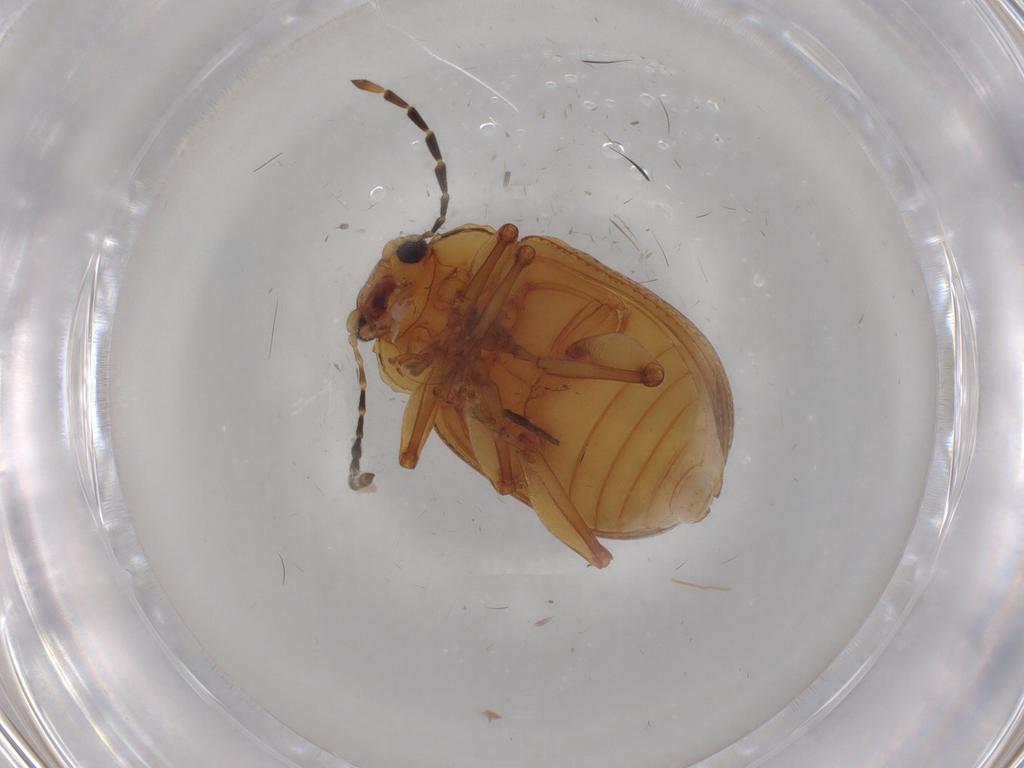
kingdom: Animalia
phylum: Arthropoda
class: Insecta
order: Coleoptera
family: Chrysomelidae
